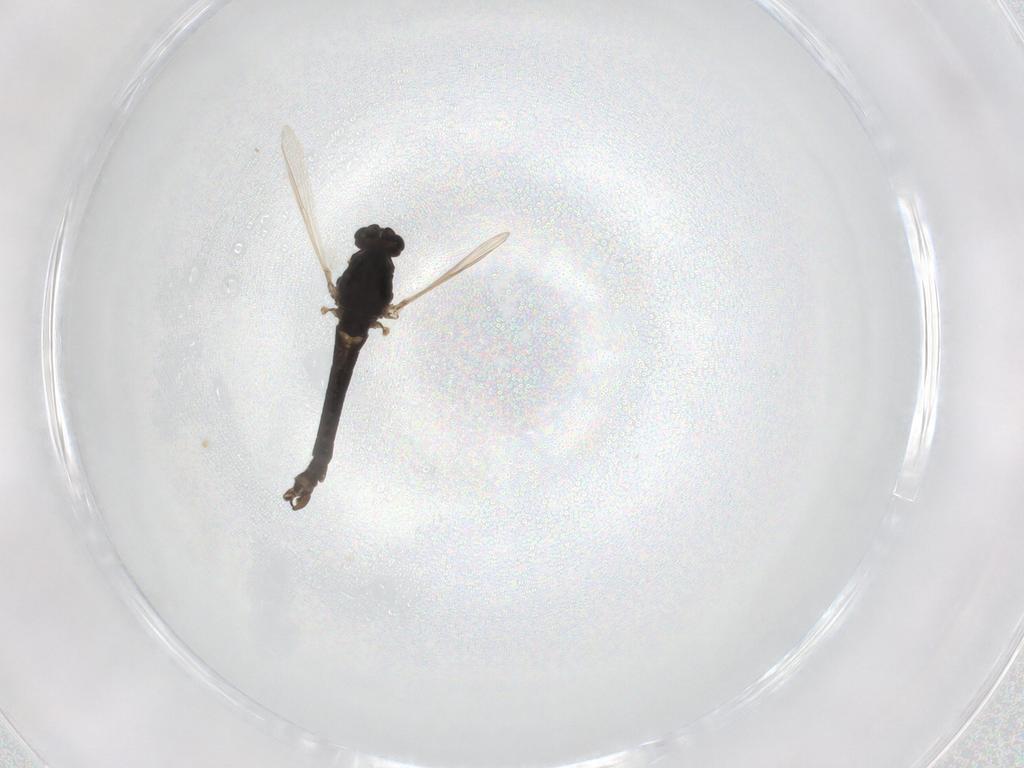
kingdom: Animalia
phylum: Arthropoda
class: Insecta
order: Diptera
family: Chironomidae
